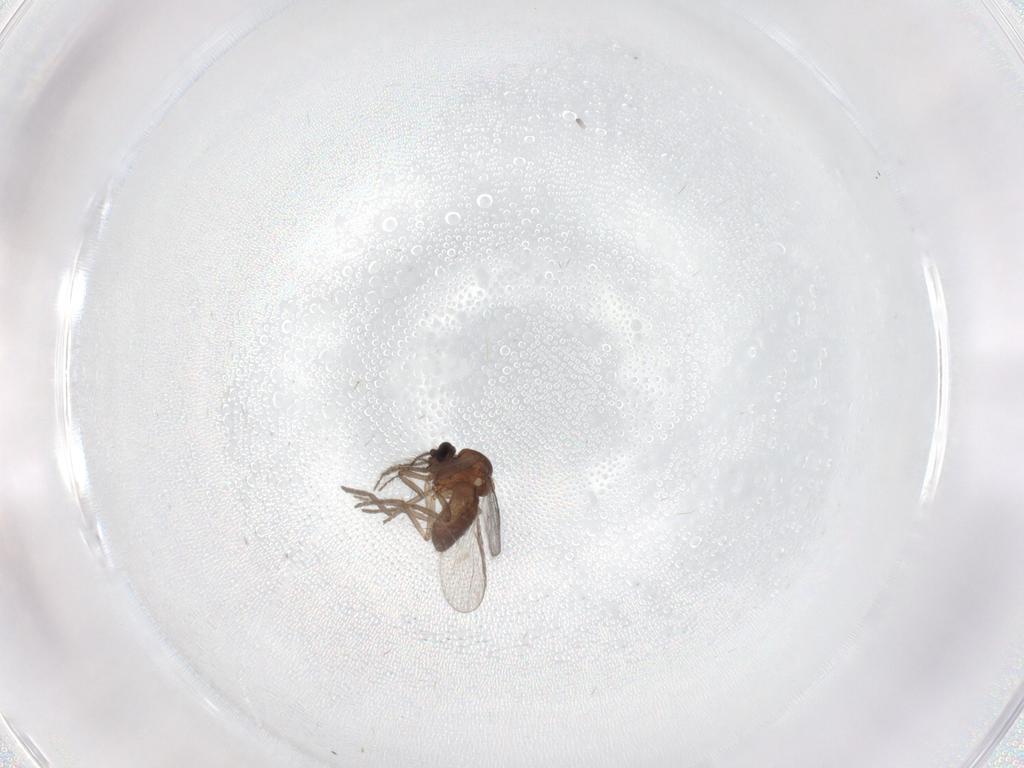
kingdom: Animalia
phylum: Arthropoda
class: Insecta
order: Diptera
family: Ceratopogonidae
